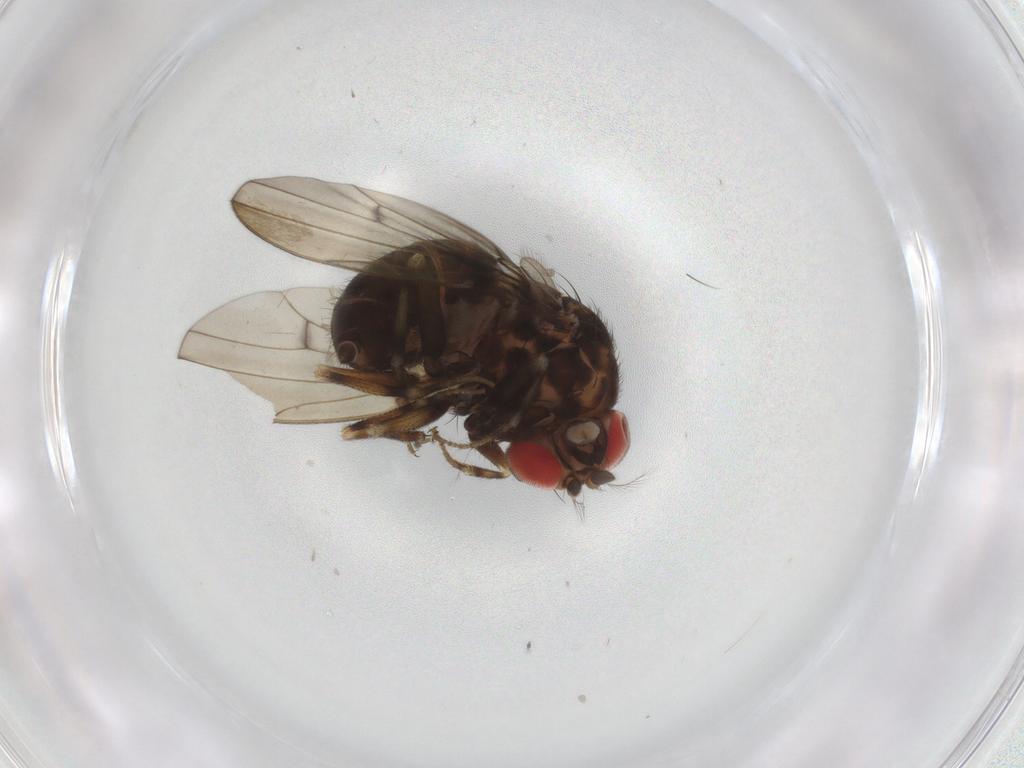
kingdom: Animalia
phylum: Arthropoda
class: Insecta
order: Diptera
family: Drosophilidae
